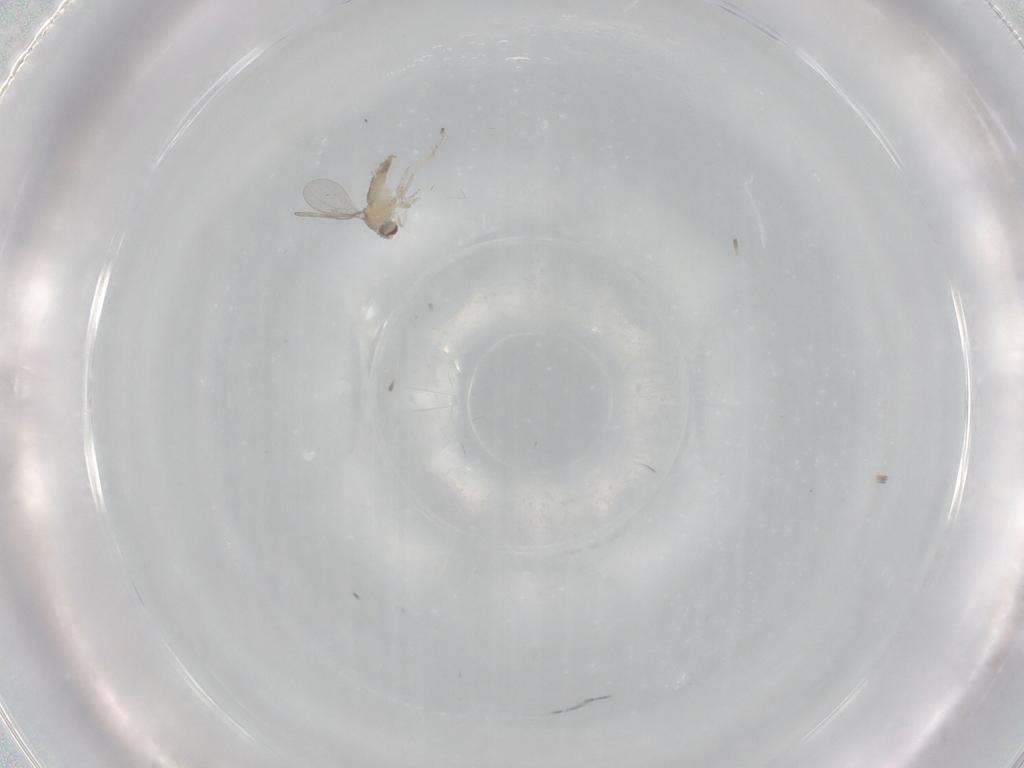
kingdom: Animalia
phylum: Arthropoda
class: Insecta
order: Diptera
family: Cecidomyiidae
